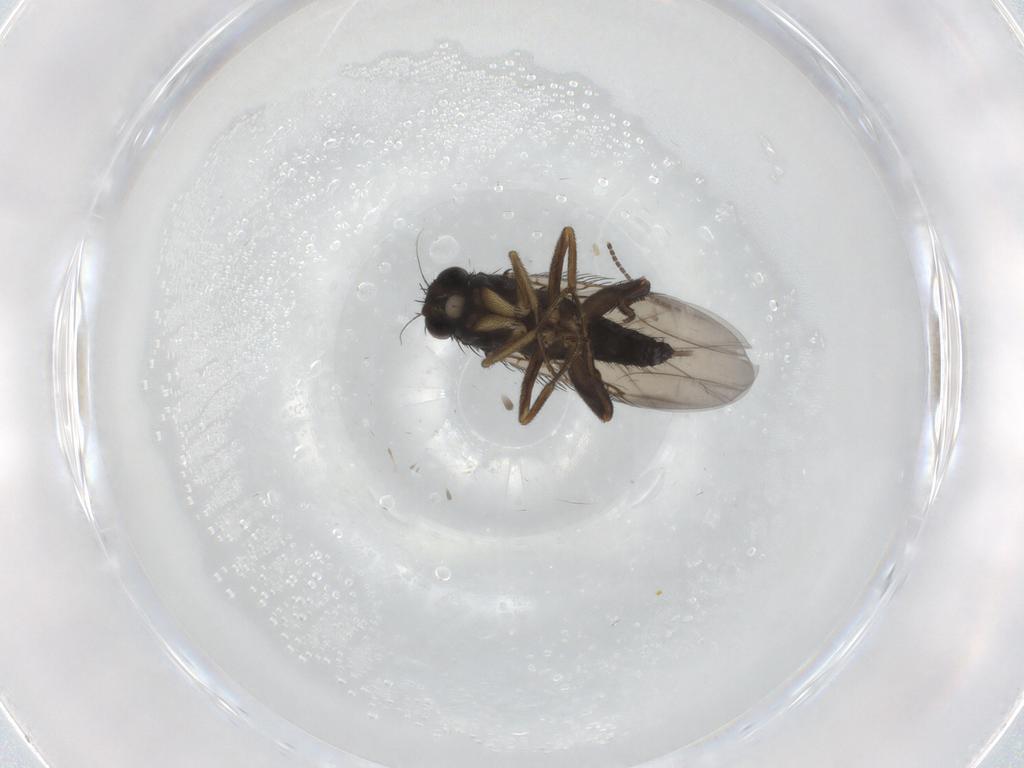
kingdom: Animalia
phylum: Arthropoda
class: Insecta
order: Diptera
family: Phoridae
